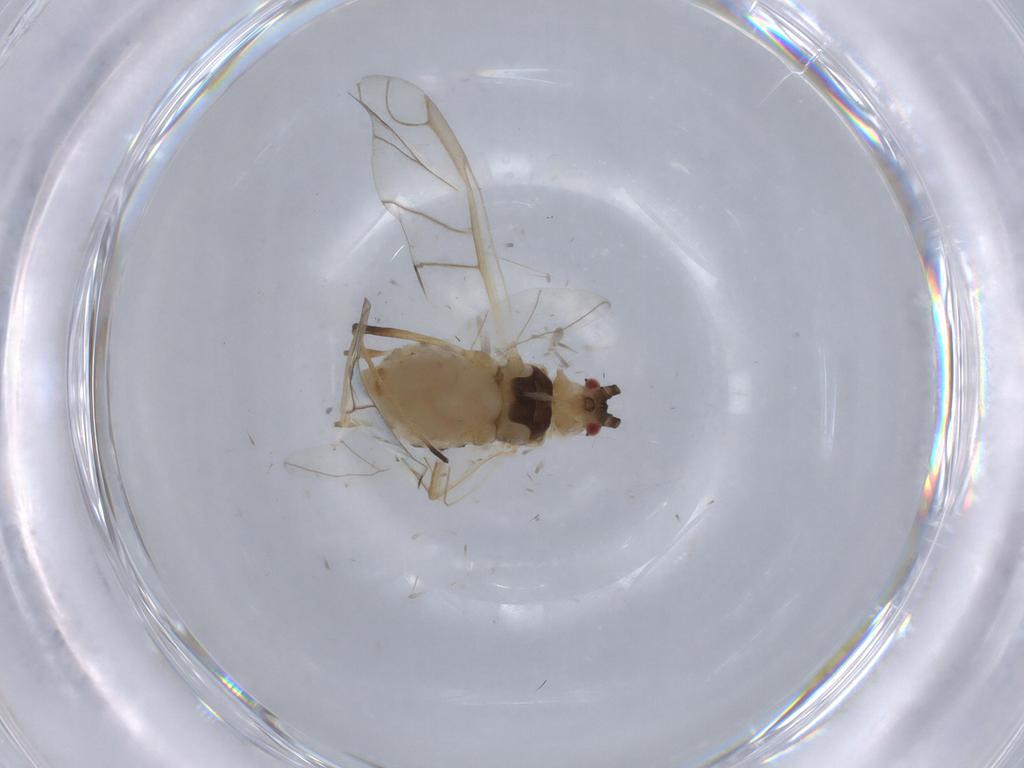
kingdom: Animalia
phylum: Arthropoda
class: Insecta
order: Hemiptera
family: Aphididae
